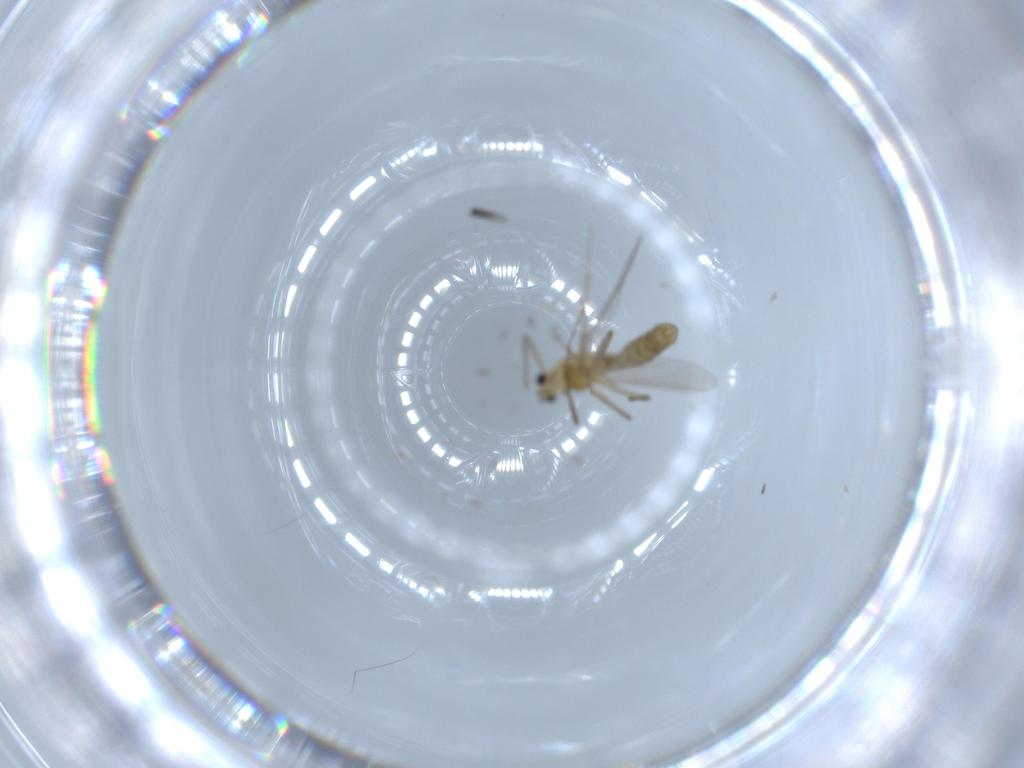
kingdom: Animalia
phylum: Arthropoda
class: Insecta
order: Diptera
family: Chironomidae
